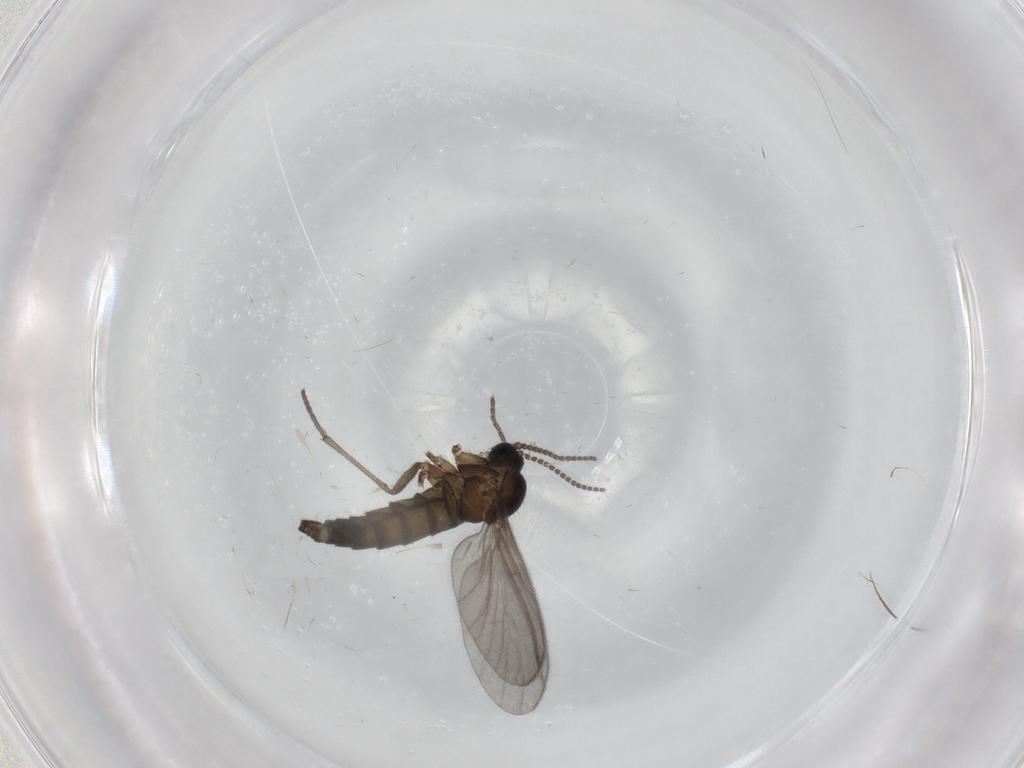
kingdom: Animalia
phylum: Arthropoda
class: Insecta
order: Diptera
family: Sciaridae
